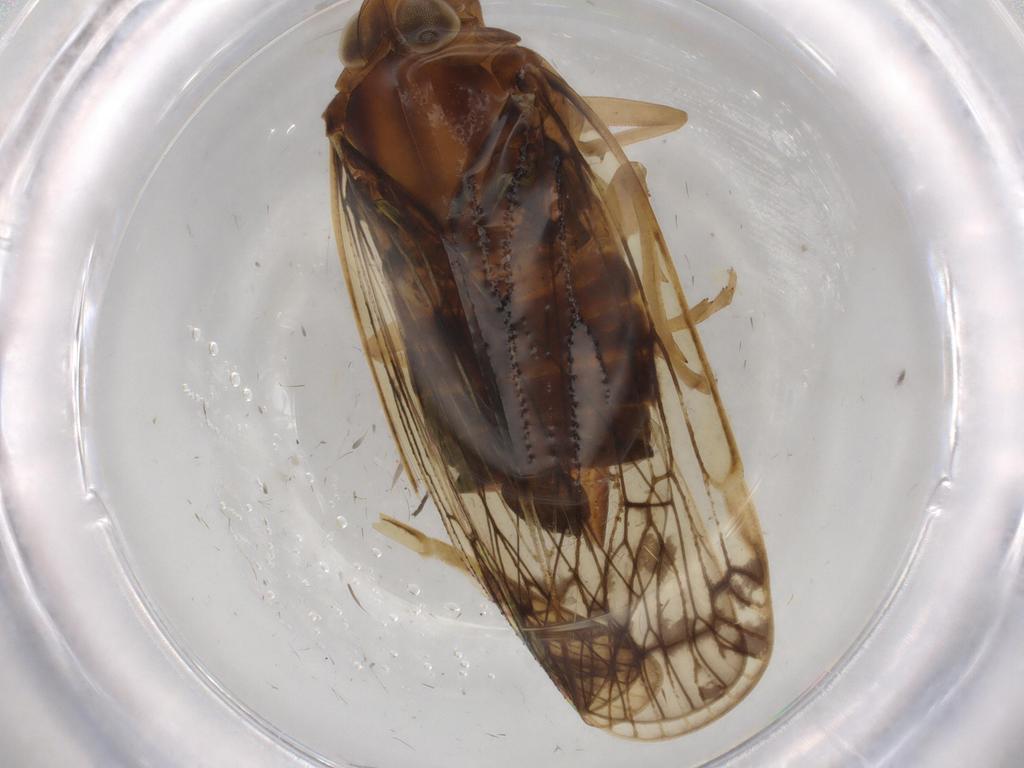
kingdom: Animalia
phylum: Arthropoda
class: Insecta
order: Hemiptera
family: Cixiidae
